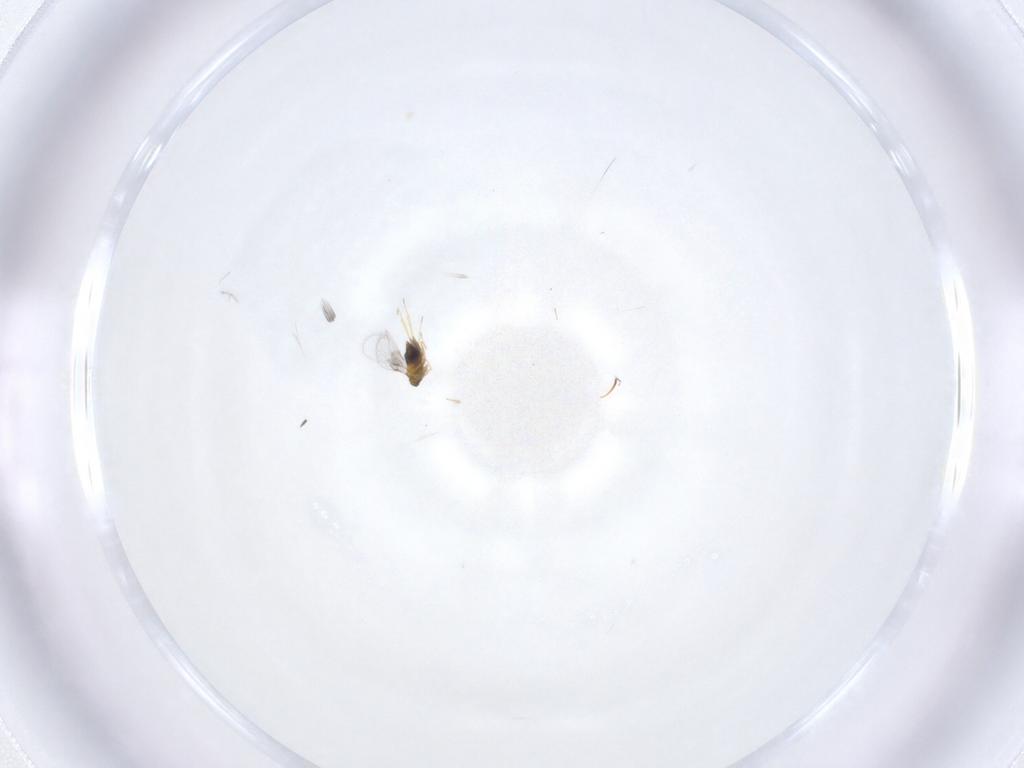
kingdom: Animalia
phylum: Arthropoda
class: Insecta
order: Hymenoptera
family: Trichogrammatidae
